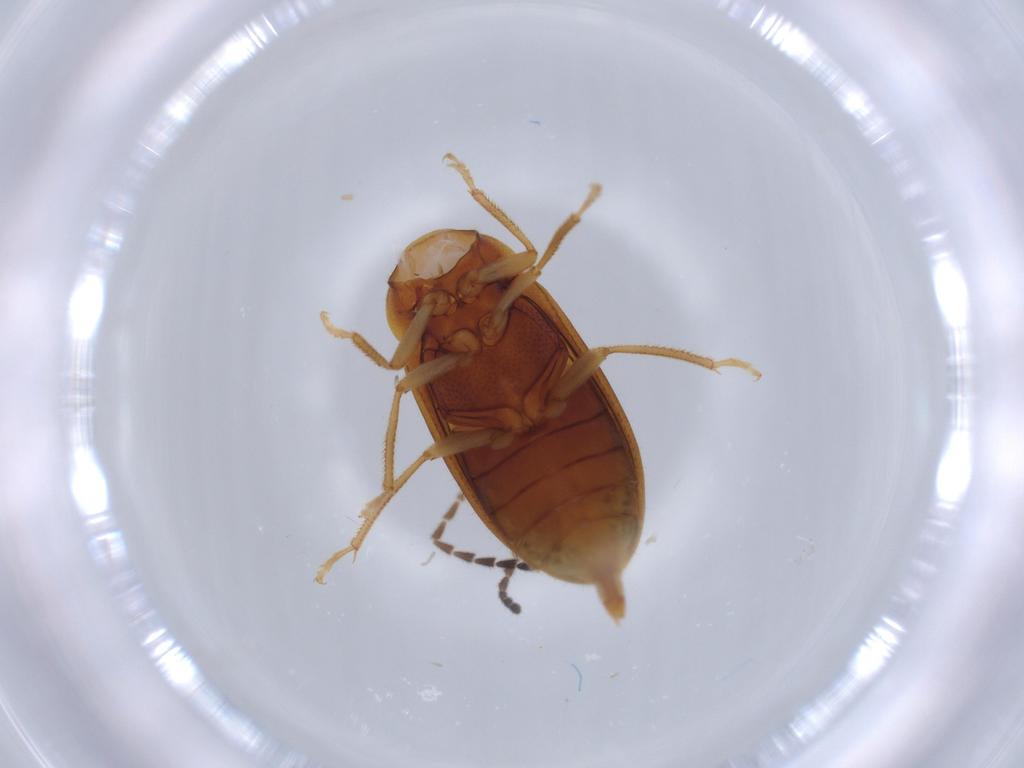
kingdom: Animalia
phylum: Arthropoda
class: Insecta
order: Coleoptera
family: Ptilodactylidae
